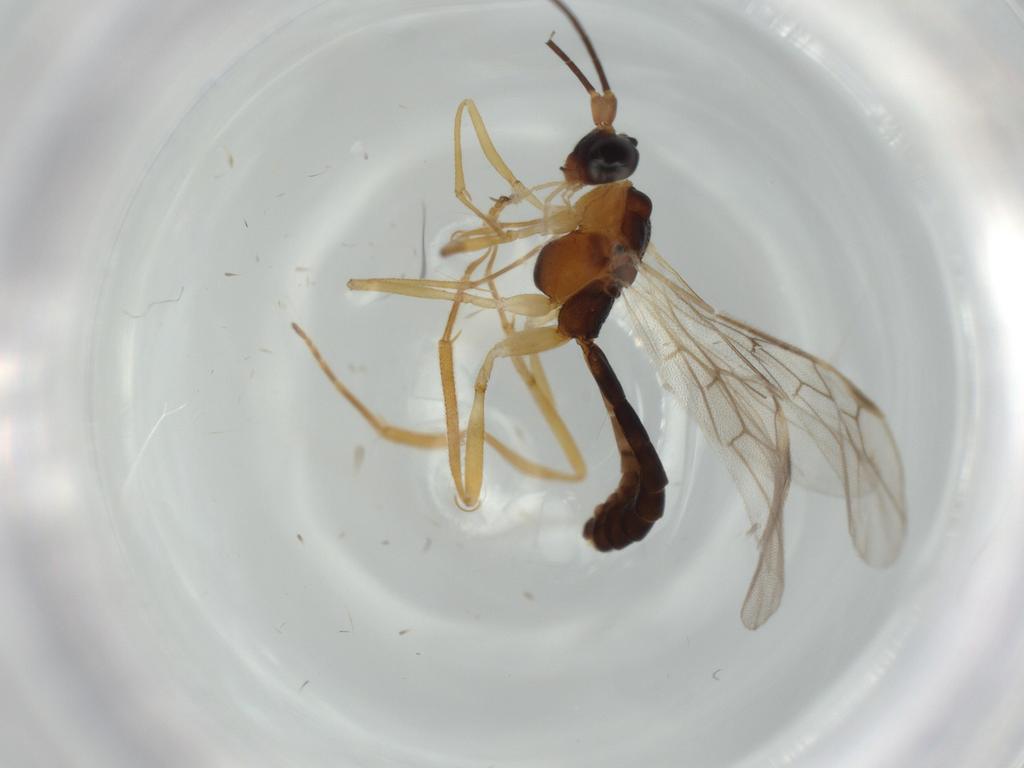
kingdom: Animalia
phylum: Arthropoda
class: Insecta
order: Hymenoptera
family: Braconidae
